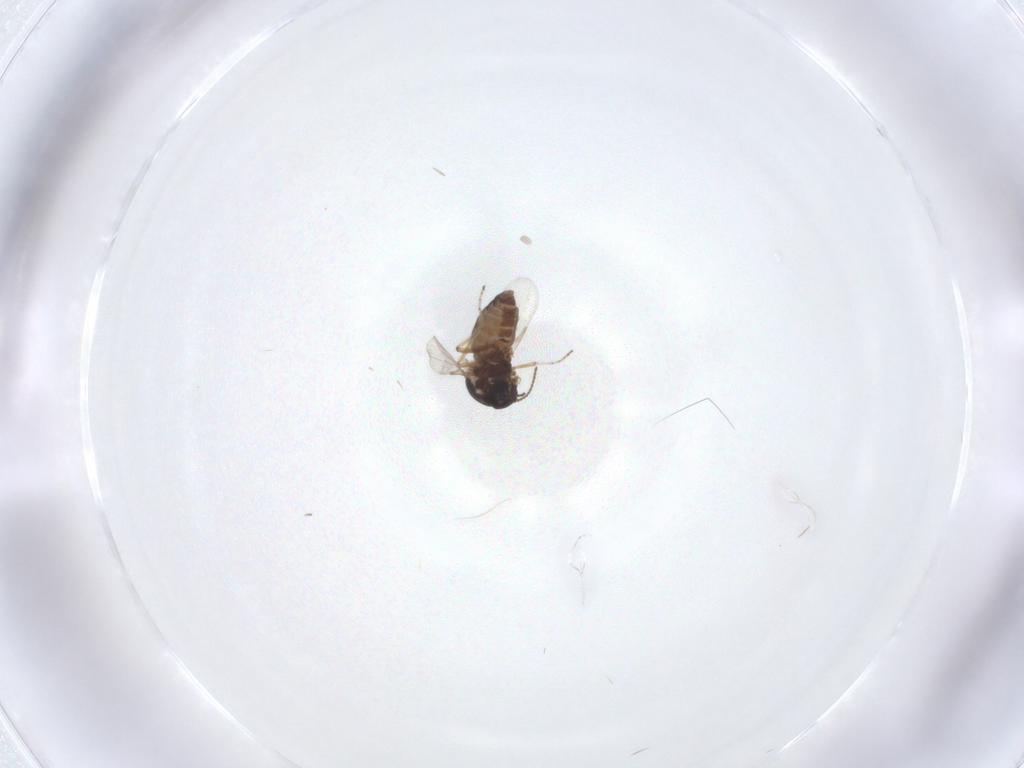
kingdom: Animalia
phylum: Arthropoda
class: Insecta
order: Diptera
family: Ceratopogonidae
